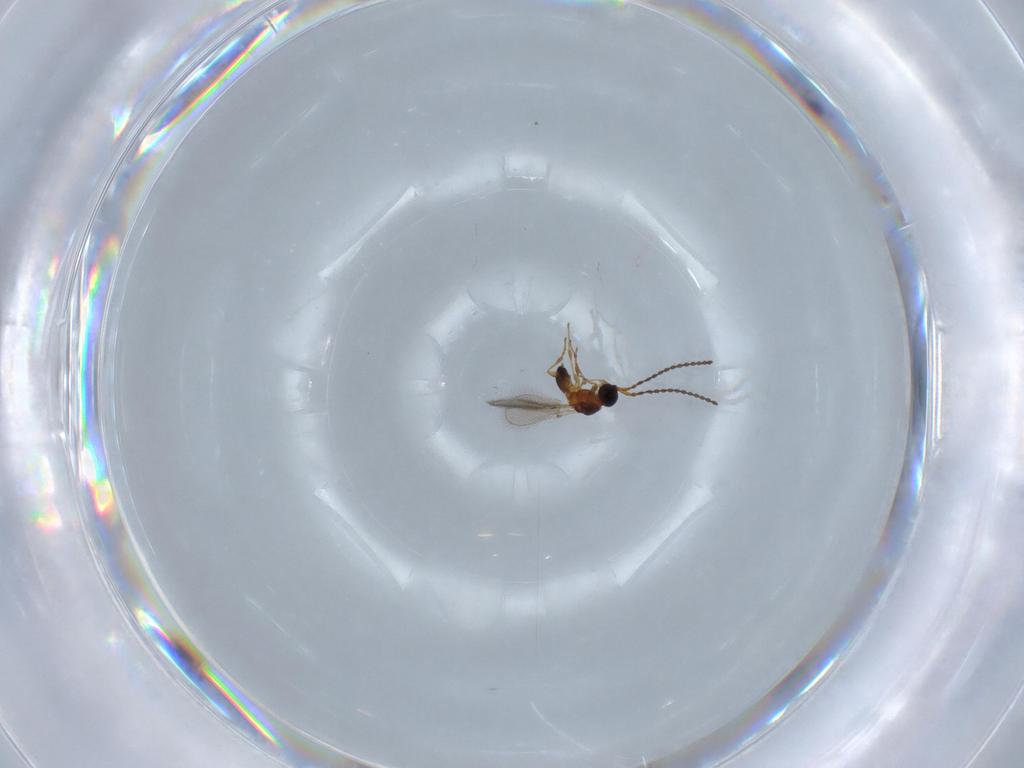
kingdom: Animalia
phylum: Arthropoda
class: Insecta
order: Hymenoptera
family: Diapriidae
